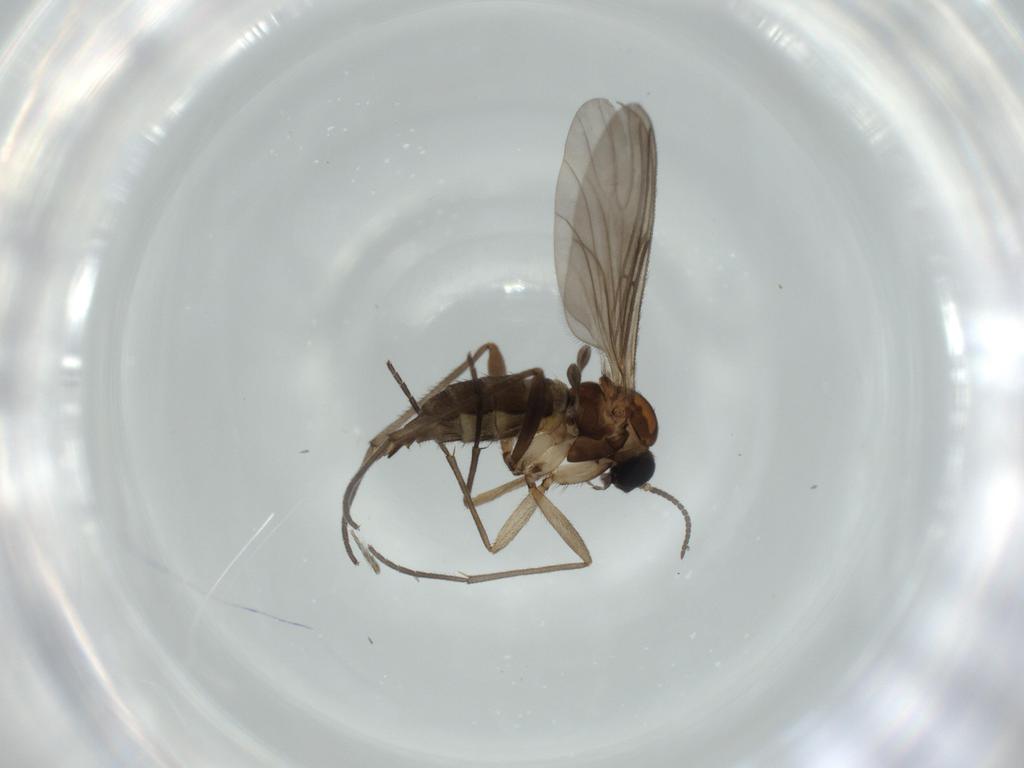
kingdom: Animalia
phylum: Arthropoda
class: Insecta
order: Diptera
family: Sciaridae
